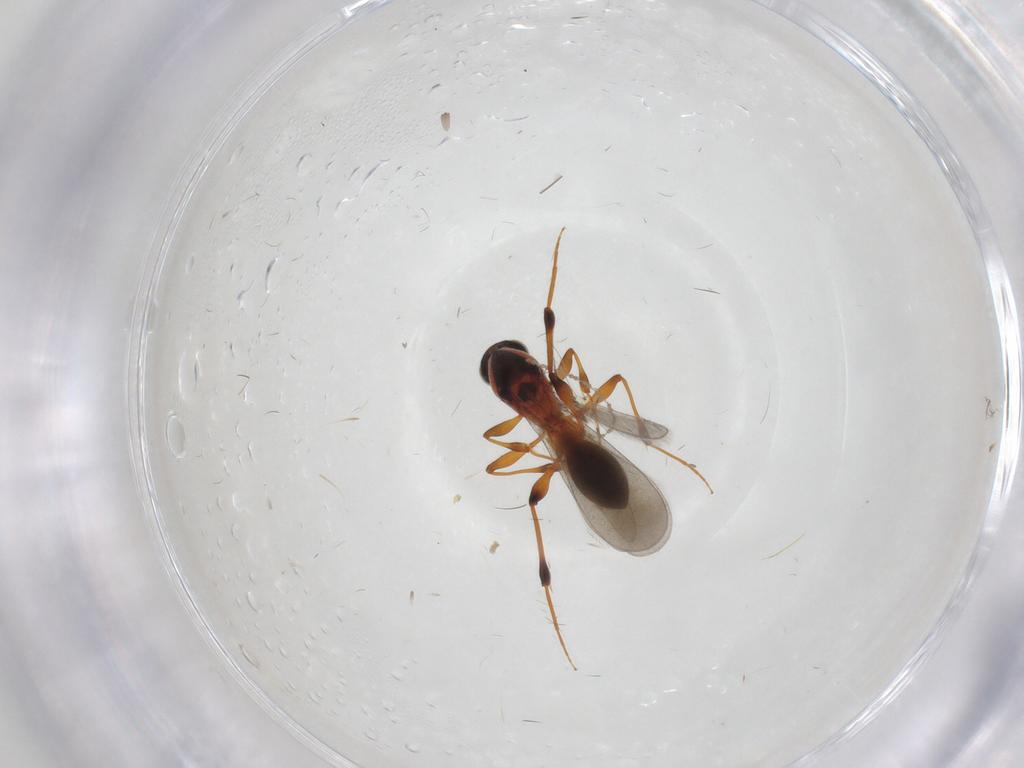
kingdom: Animalia
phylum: Arthropoda
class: Insecta
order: Hymenoptera
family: Platygastridae
